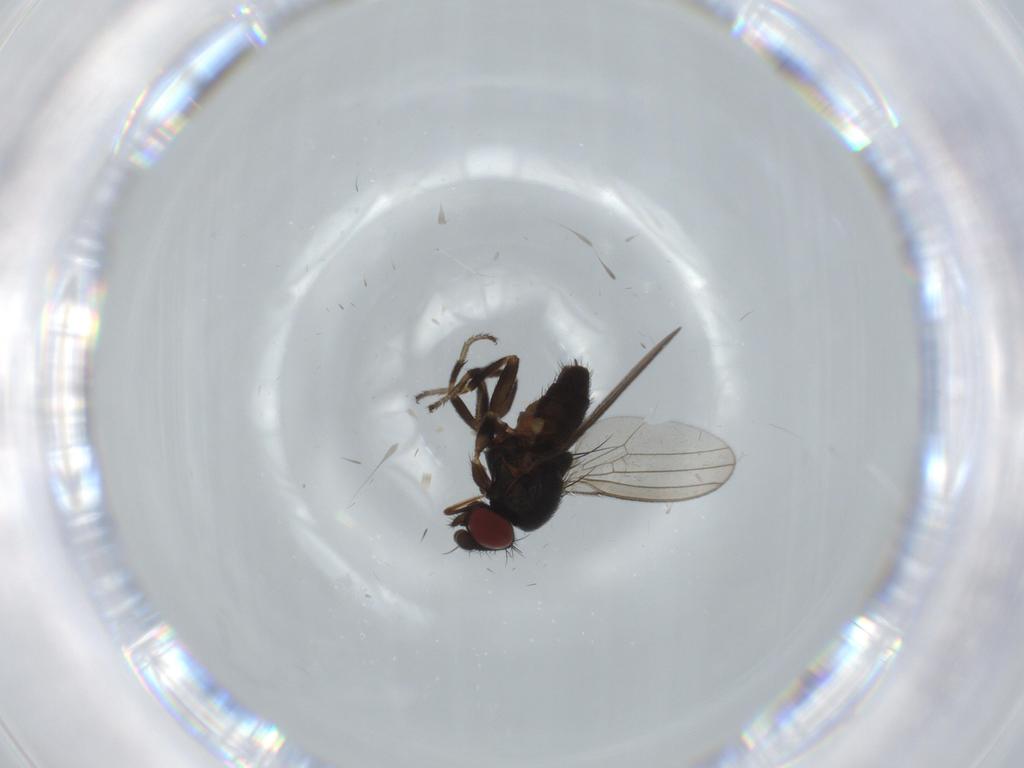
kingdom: Animalia
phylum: Arthropoda
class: Insecta
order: Diptera
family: Milichiidae
